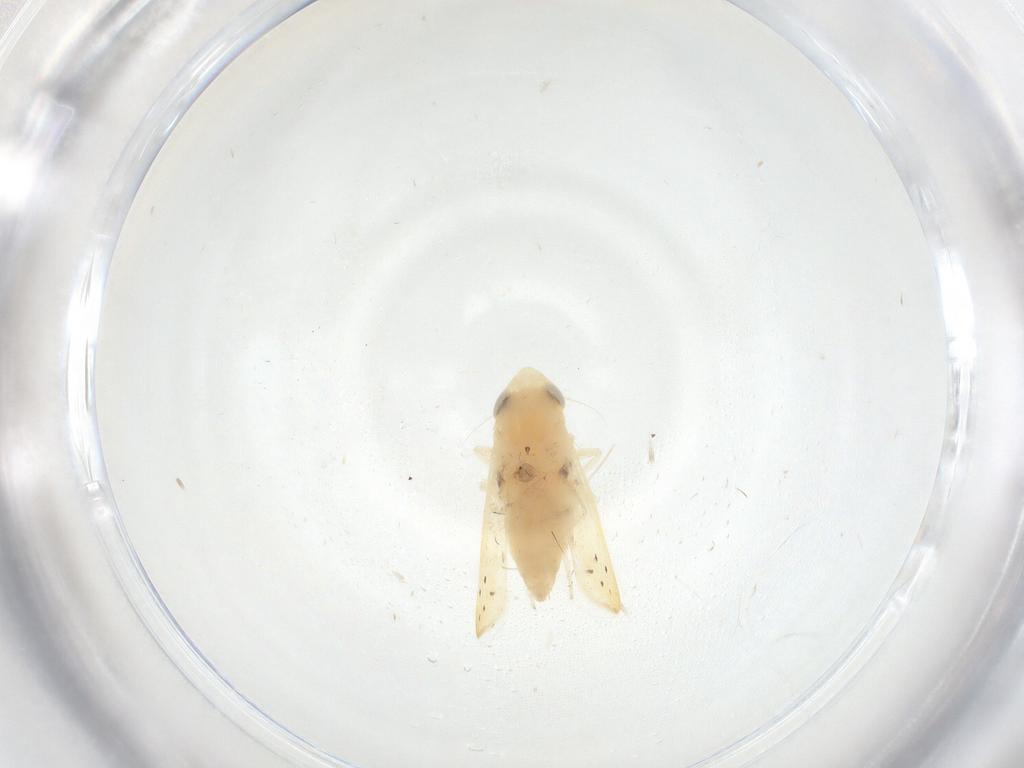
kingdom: Animalia
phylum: Arthropoda
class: Insecta
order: Hemiptera
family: Cicadellidae
